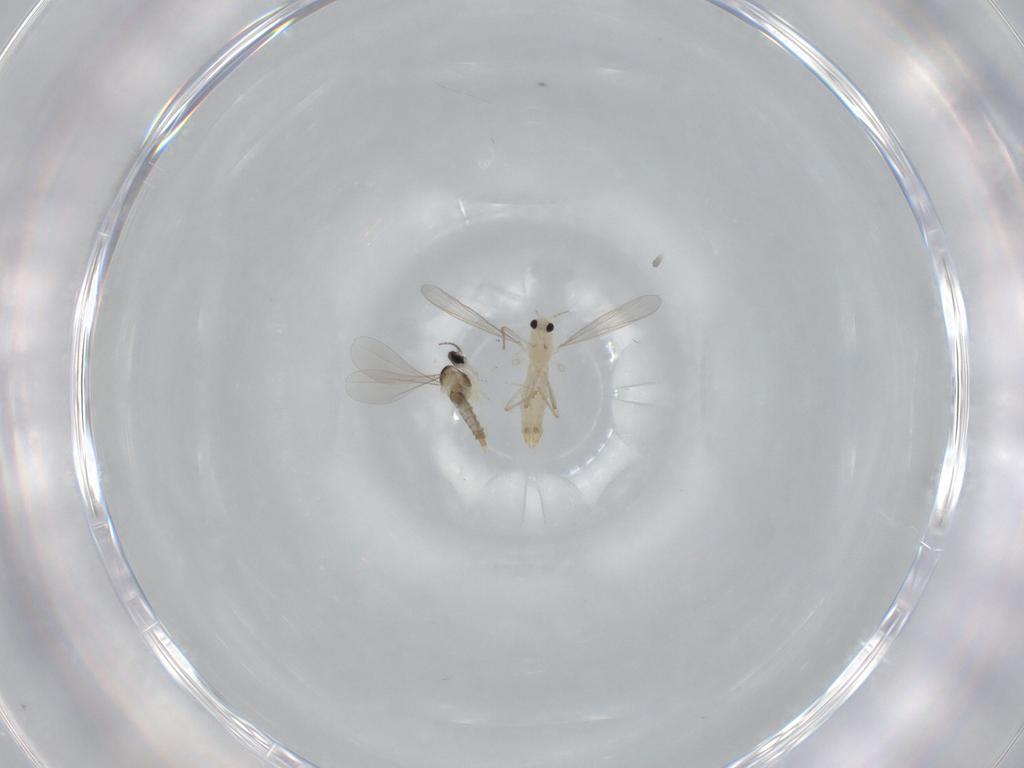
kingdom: Animalia
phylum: Arthropoda
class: Insecta
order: Diptera
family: Chironomidae
